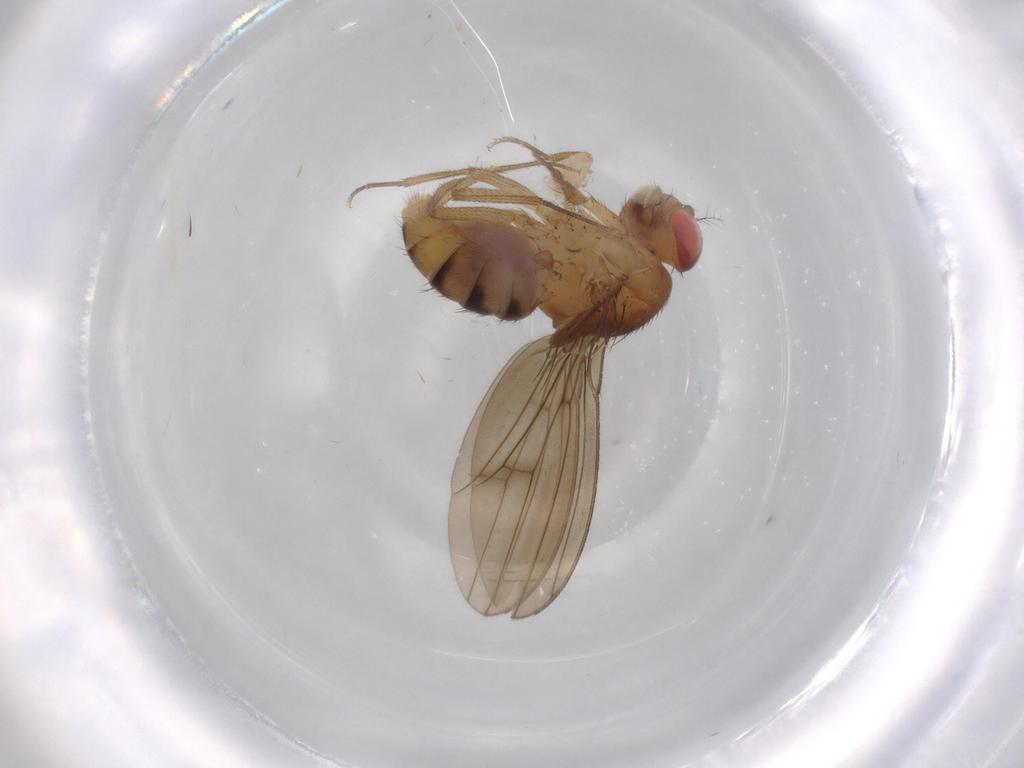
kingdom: Animalia
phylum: Arthropoda
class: Insecta
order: Diptera
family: Drosophilidae
